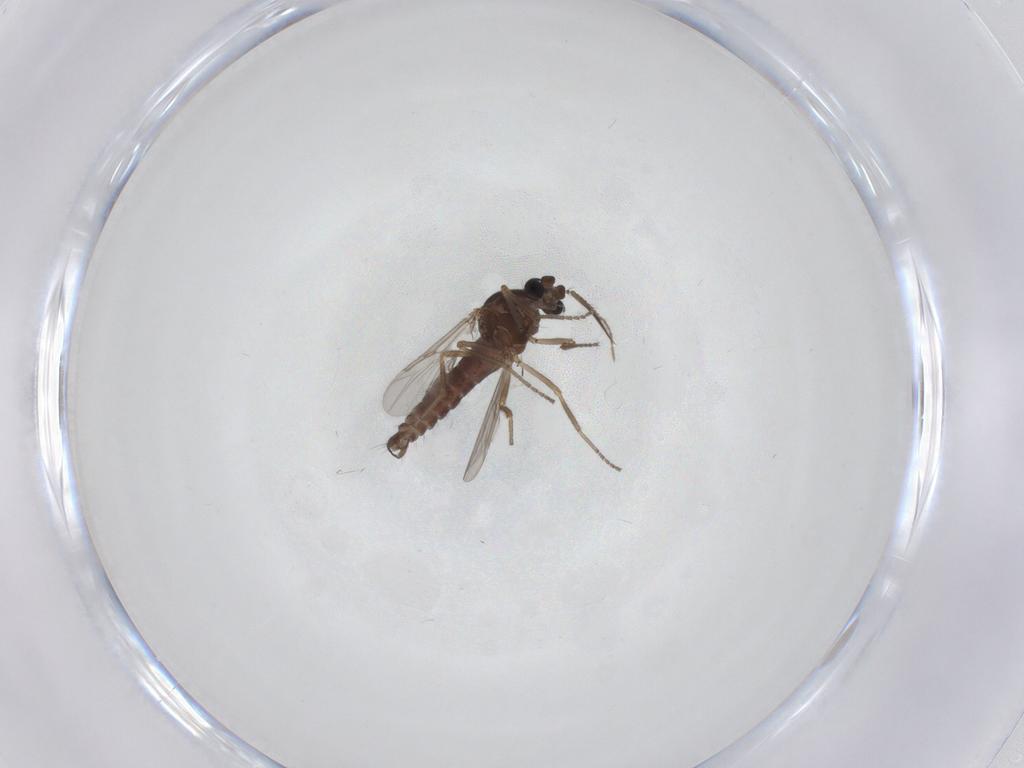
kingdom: Animalia
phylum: Arthropoda
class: Insecta
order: Diptera
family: Ceratopogonidae
